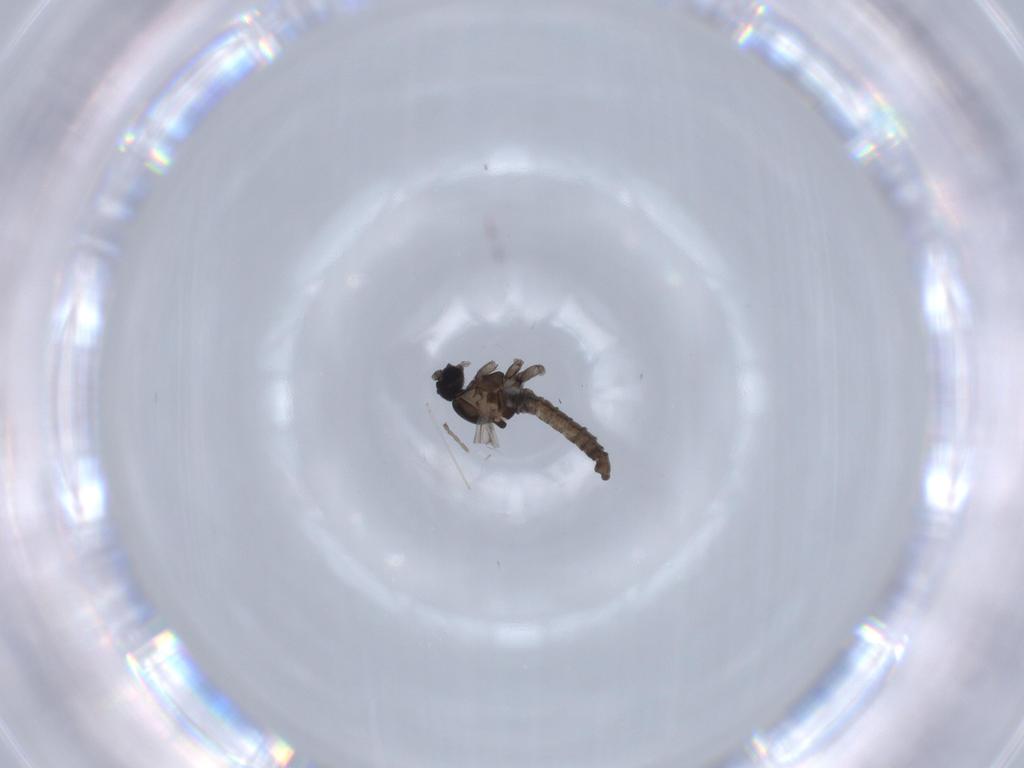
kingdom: Animalia
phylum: Arthropoda
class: Insecta
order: Diptera
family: Cecidomyiidae
